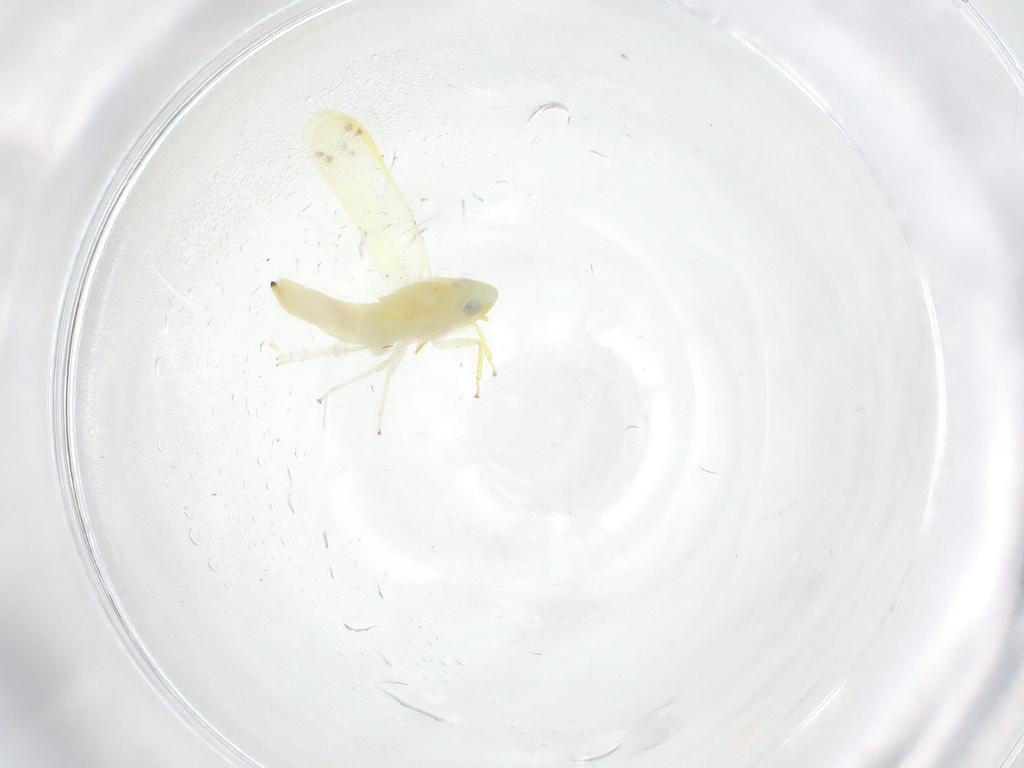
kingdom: Animalia
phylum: Arthropoda
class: Insecta
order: Hemiptera
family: Cicadellidae
